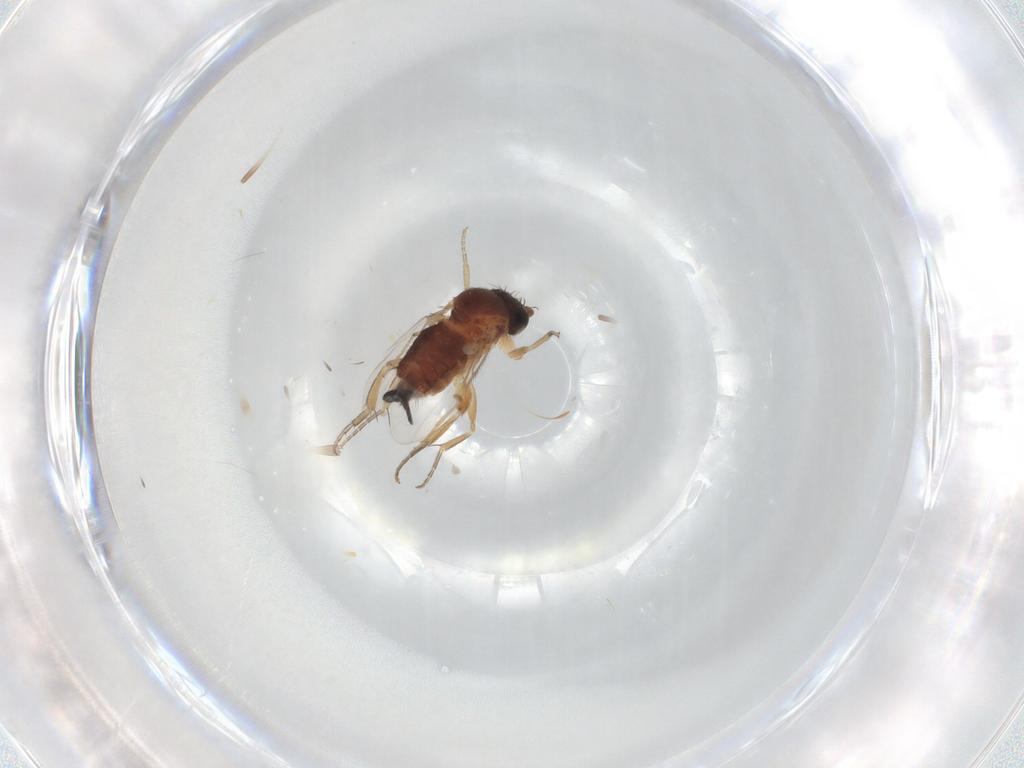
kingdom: Animalia
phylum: Arthropoda
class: Insecta
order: Diptera
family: Chironomidae
